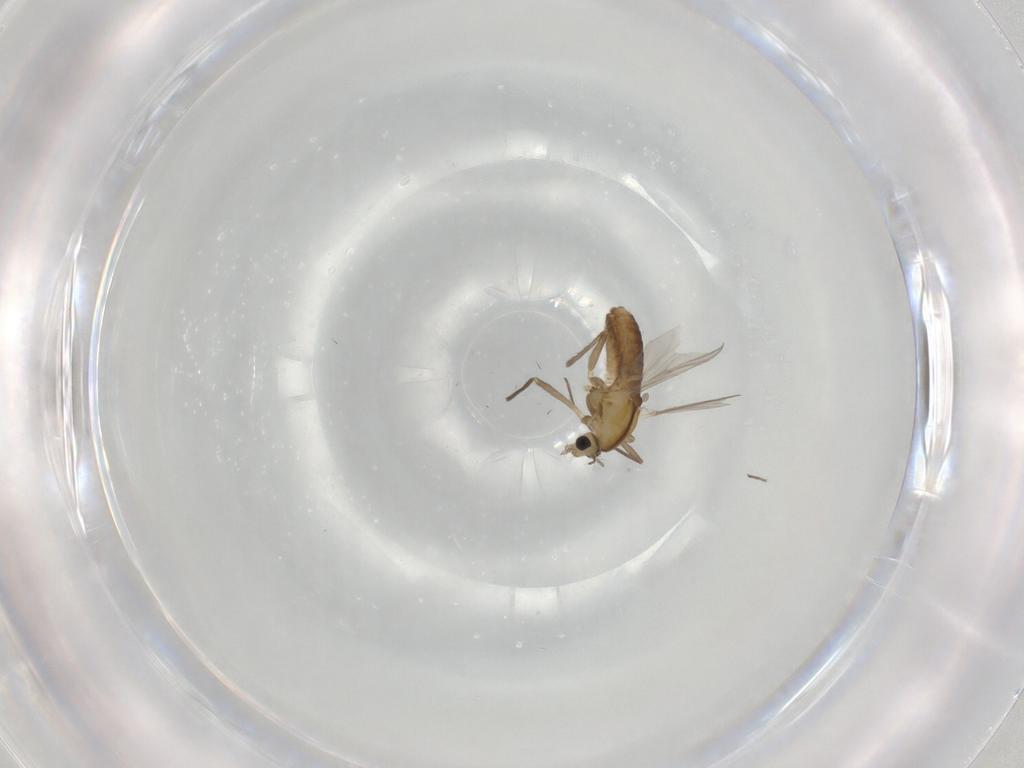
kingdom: Animalia
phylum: Arthropoda
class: Insecta
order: Diptera
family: Chironomidae
